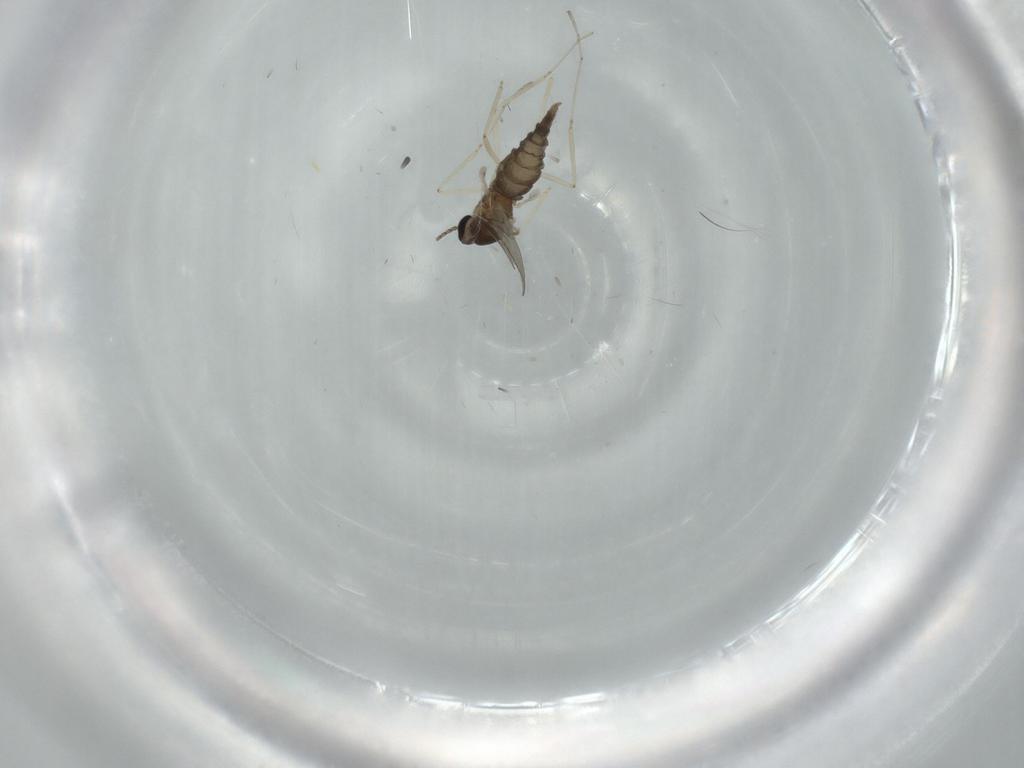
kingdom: Animalia
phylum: Arthropoda
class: Insecta
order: Diptera
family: Cecidomyiidae
